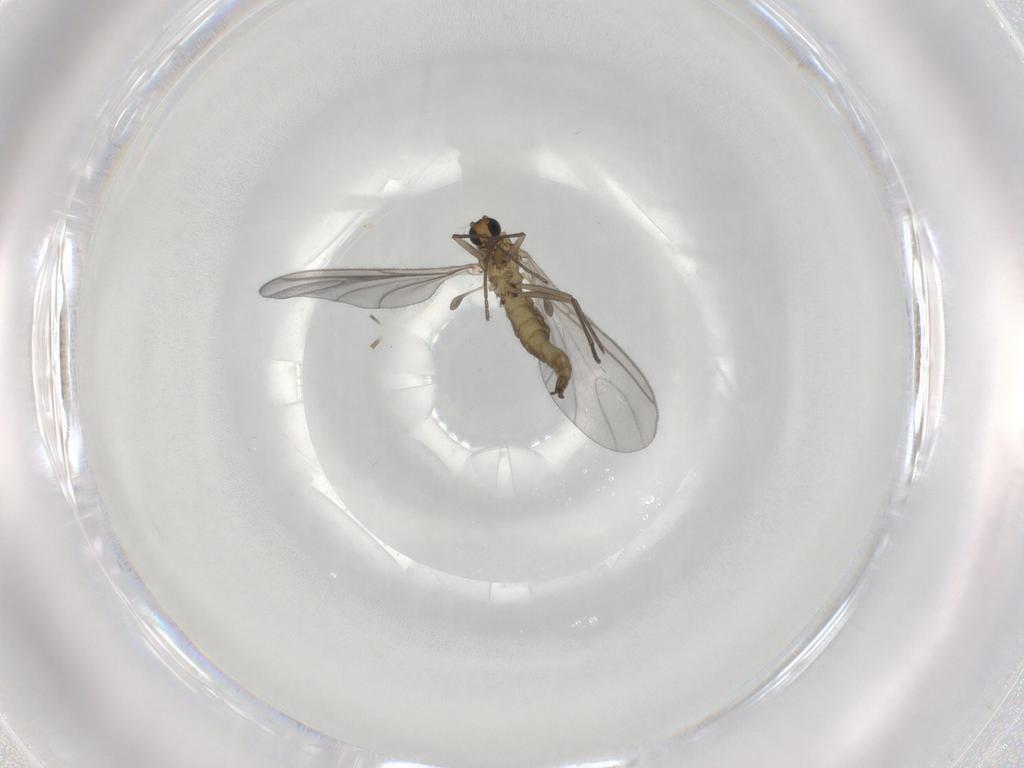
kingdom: Animalia
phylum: Arthropoda
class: Insecta
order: Diptera
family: Sciaridae
